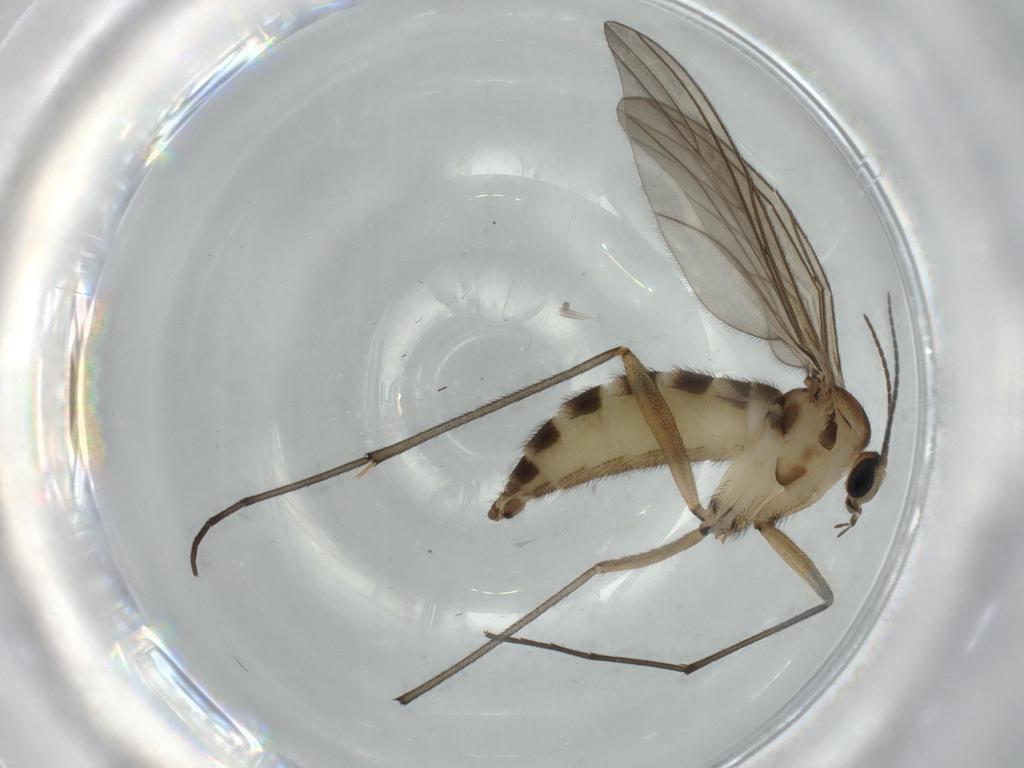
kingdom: Animalia
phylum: Arthropoda
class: Insecta
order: Diptera
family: Sciaridae
